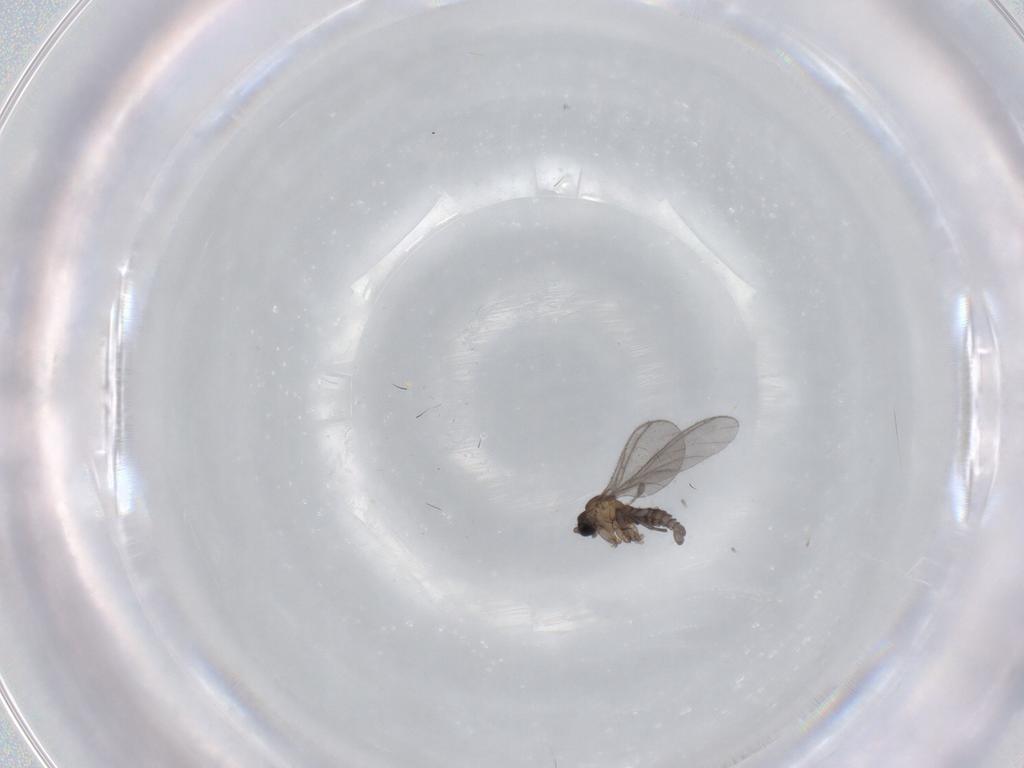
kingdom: Animalia
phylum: Arthropoda
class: Insecta
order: Diptera
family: Sciaridae
